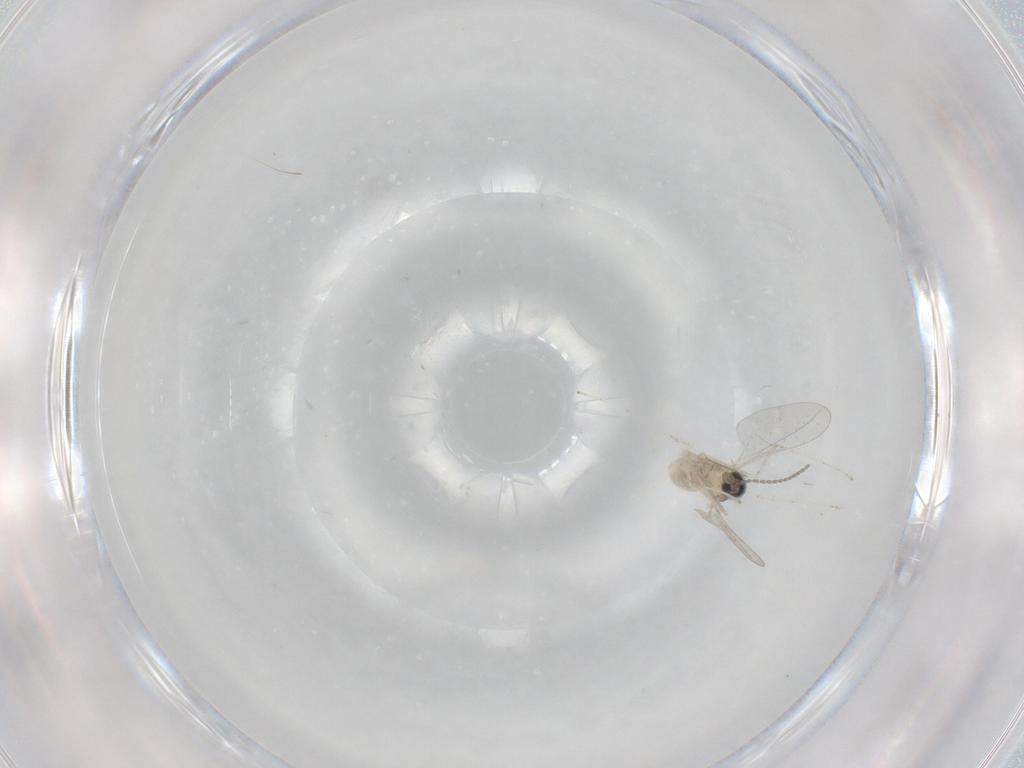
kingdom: Animalia
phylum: Arthropoda
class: Insecta
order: Diptera
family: Cecidomyiidae
